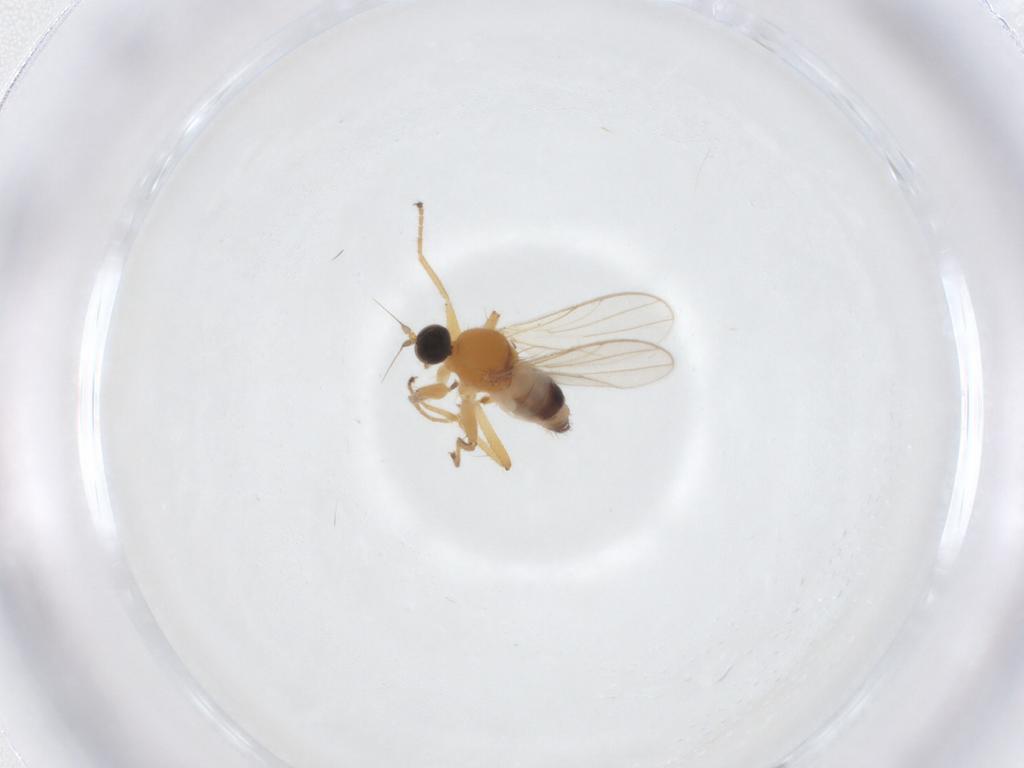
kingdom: Animalia
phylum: Arthropoda
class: Insecta
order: Diptera
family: Hybotidae
